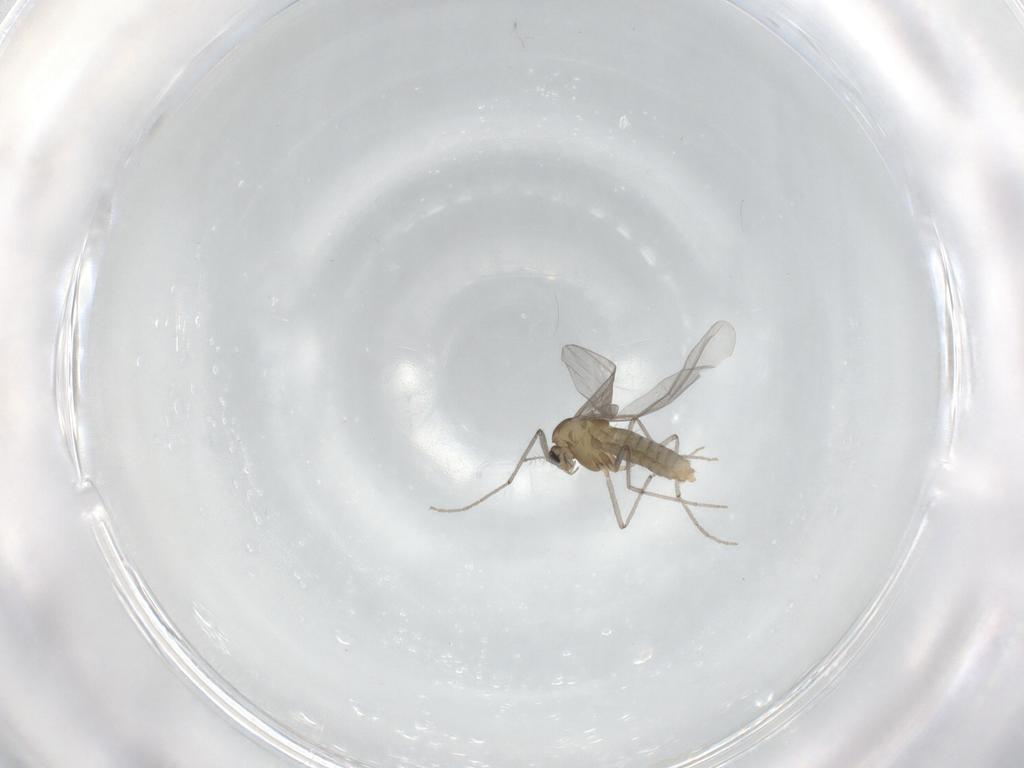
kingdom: Animalia
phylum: Arthropoda
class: Insecta
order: Diptera
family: Chironomidae
